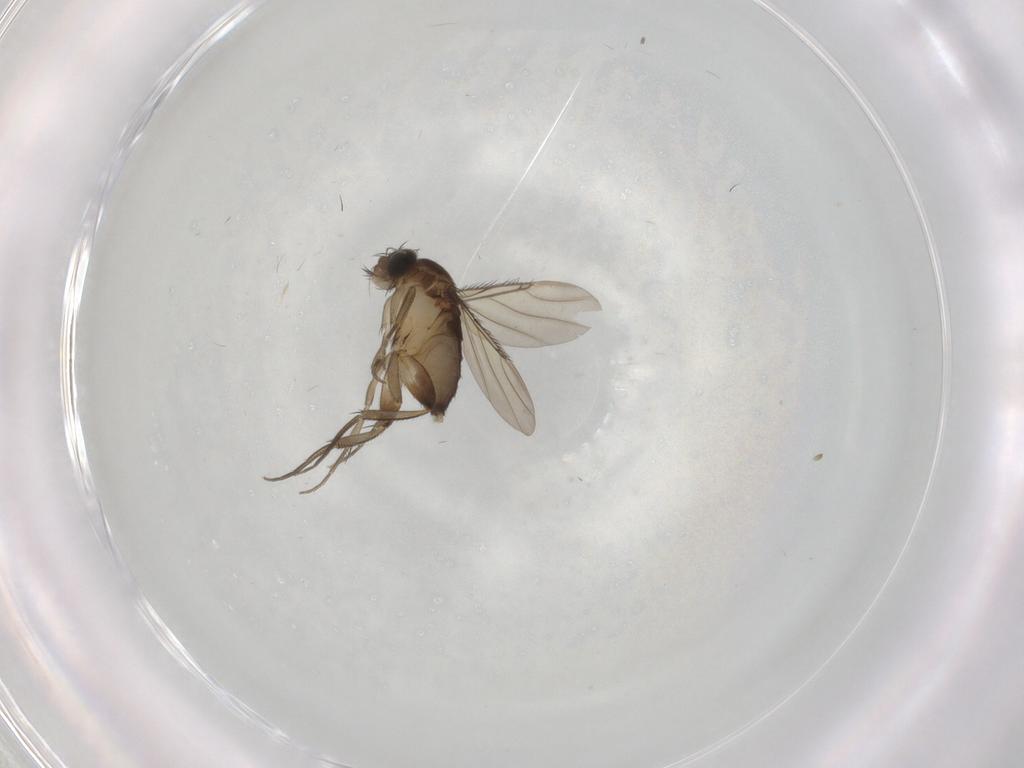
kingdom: Animalia
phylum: Arthropoda
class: Insecta
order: Diptera
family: Phoridae
